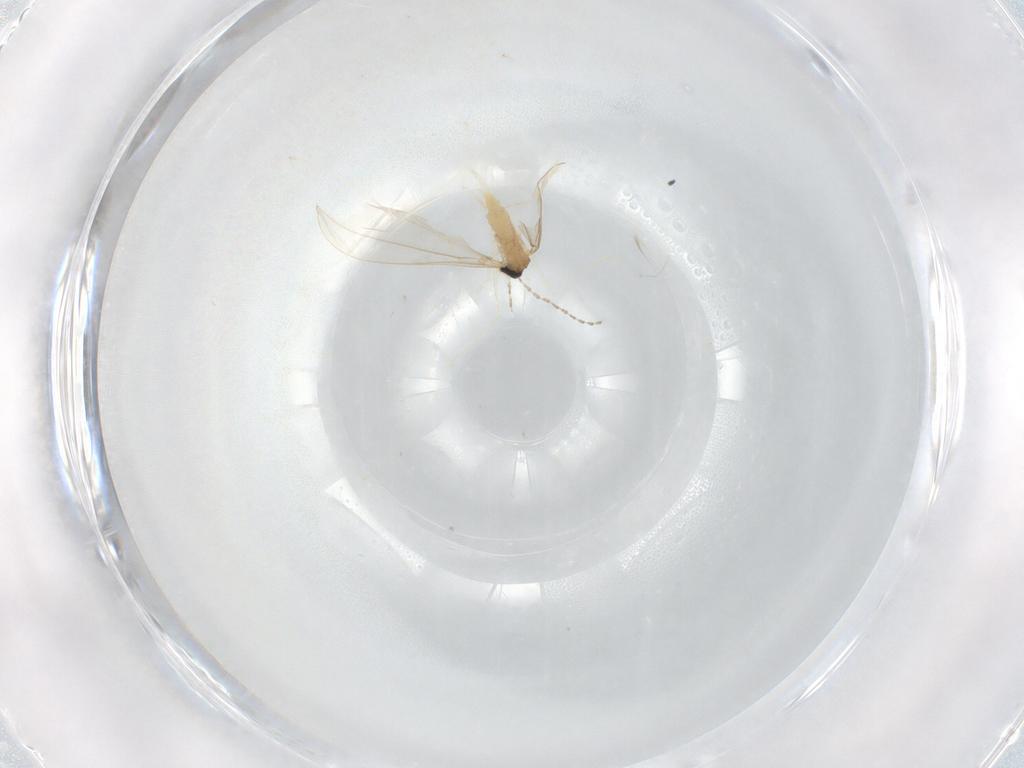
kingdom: Animalia
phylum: Arthropoda
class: Insecta
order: Diptera
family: Cecidomyiidae
